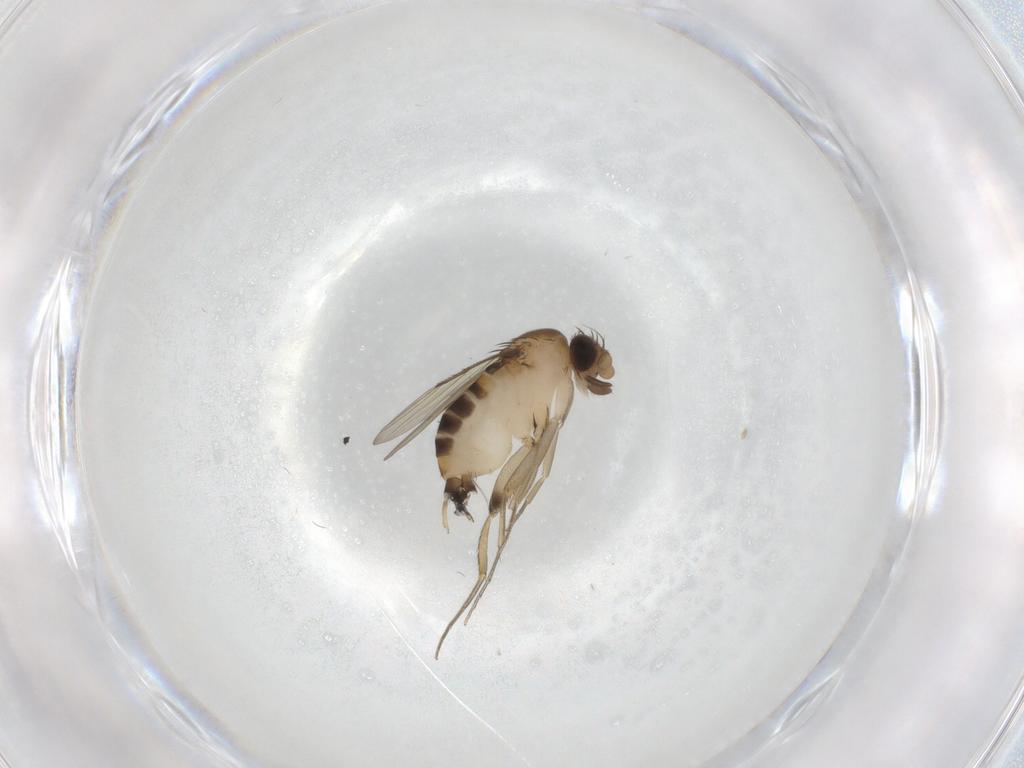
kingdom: Animalia
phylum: Arthropoda
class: Insecta
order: Diptera
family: Phoridae
